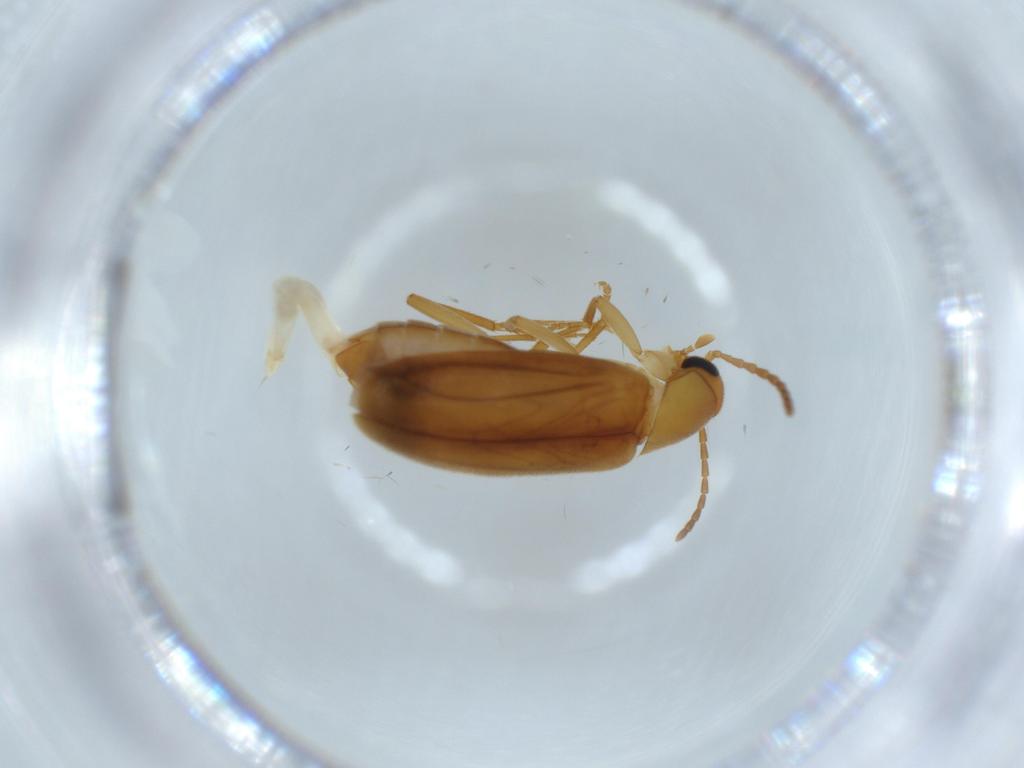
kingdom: Animalia
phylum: Arthropoda
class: Insecta
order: Coleoptera
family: Scraptiidae
